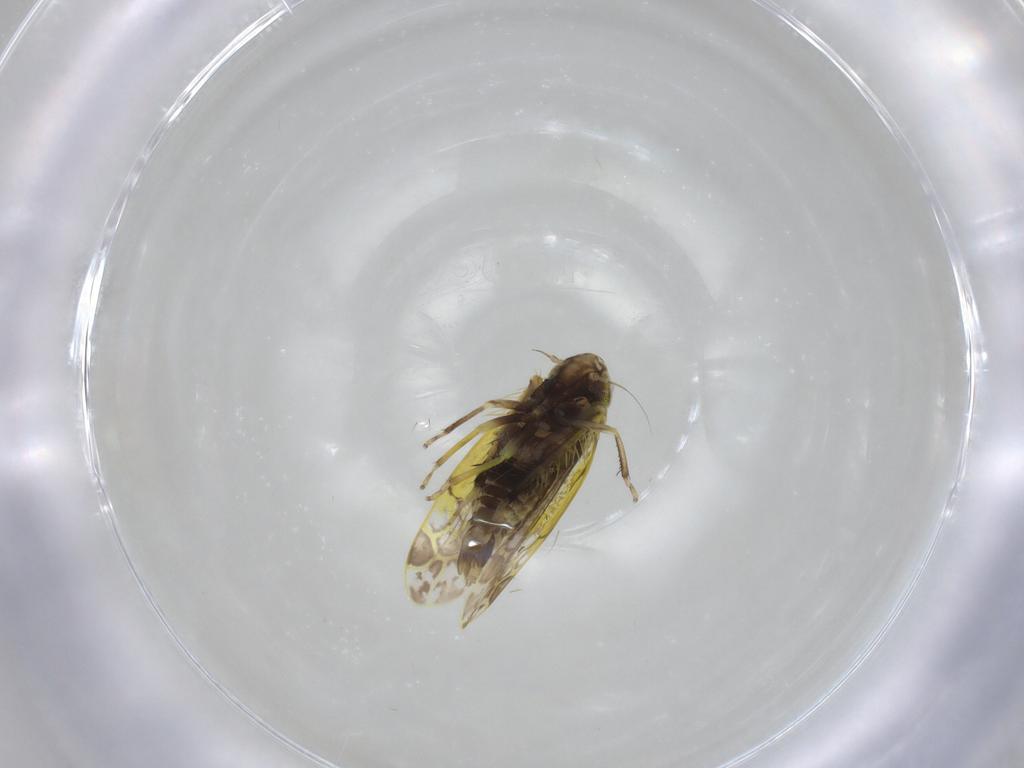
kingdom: Animalia
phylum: Arthropoda
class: Insecta
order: Hemiptera
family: Cicadellidae
